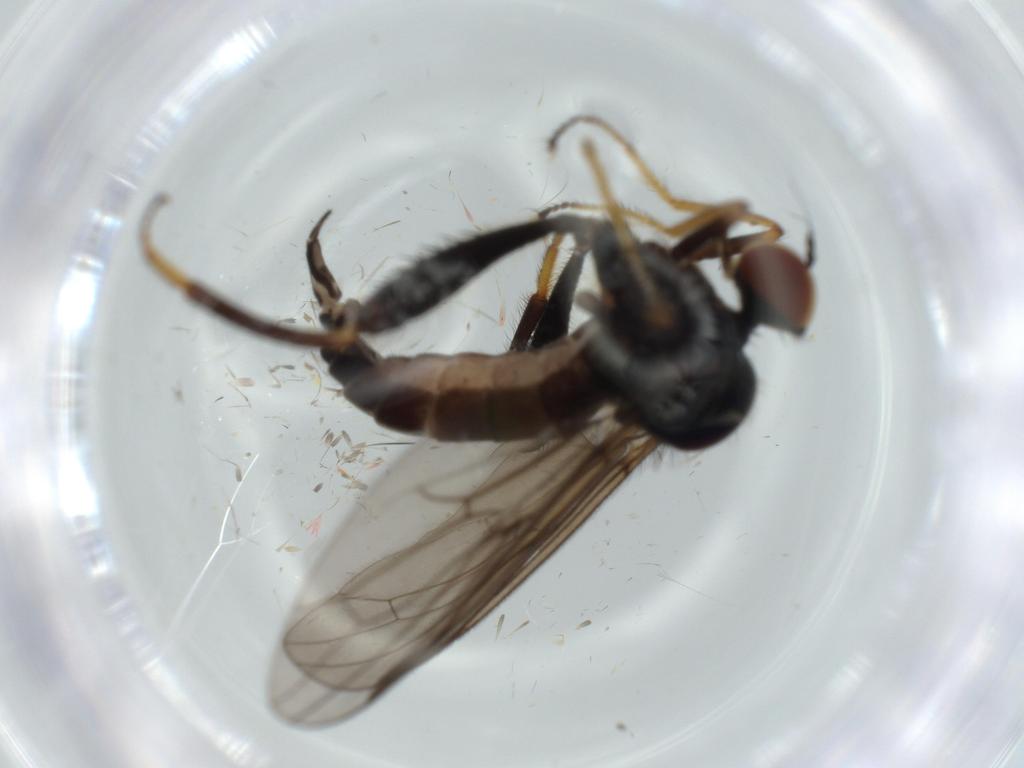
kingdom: Animalia
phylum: Arthropoda
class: Insecta
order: Diptera
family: Hybotidae
